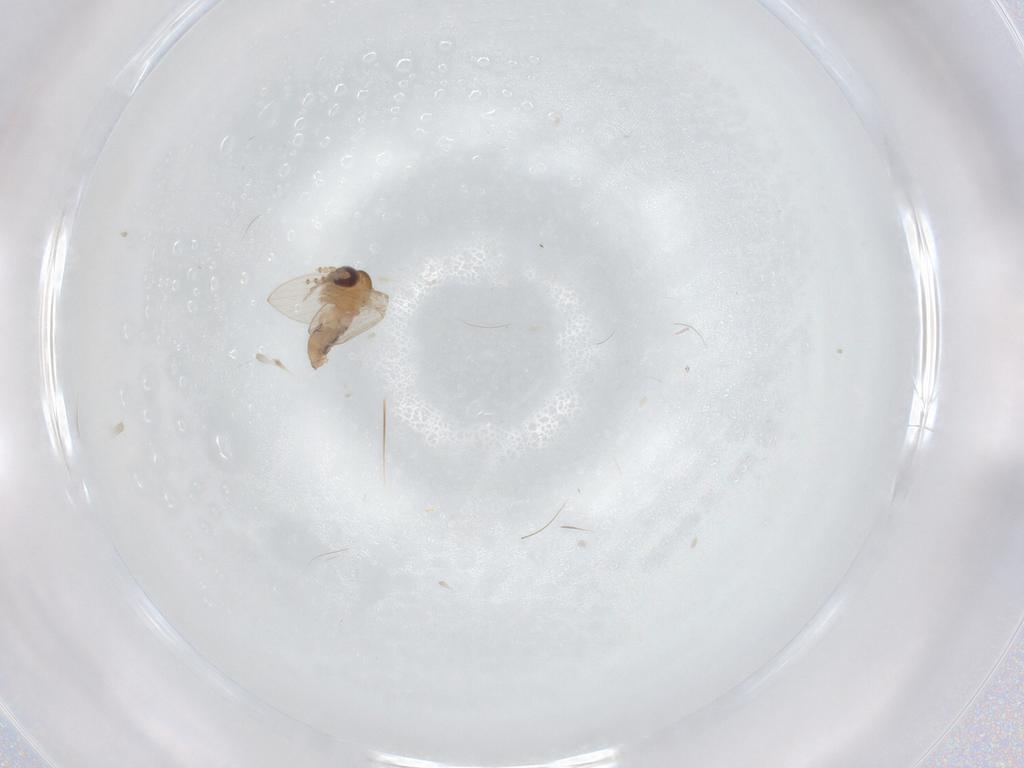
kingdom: Animalia
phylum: Arthropoda
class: Insecta
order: Diptera
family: Psychodidae
